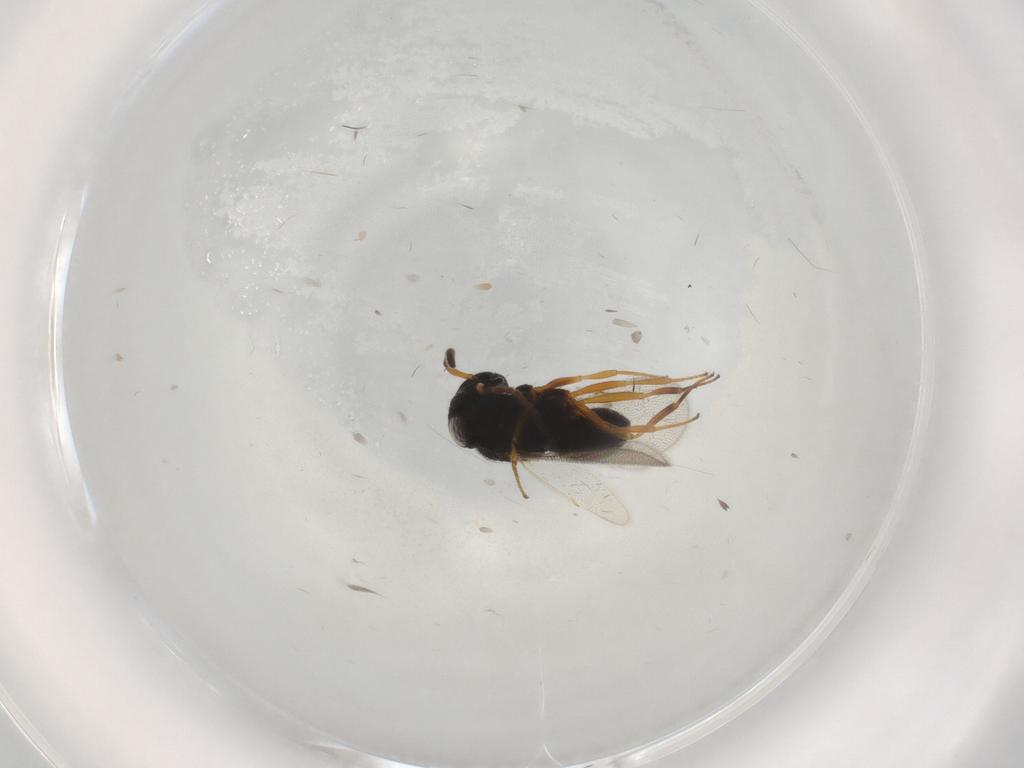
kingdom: Animalia
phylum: Arthropoda
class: Insecta
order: Hymenoptera
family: Scelionidae
